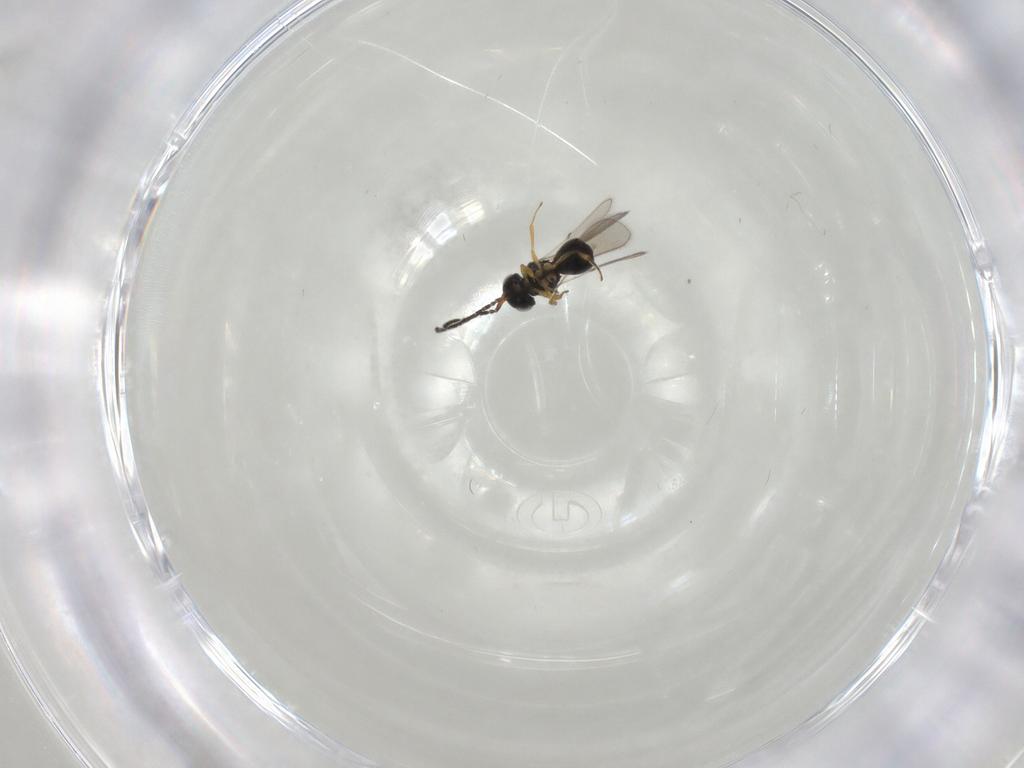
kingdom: Animalia
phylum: Arthropoda
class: Insecta
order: Hymenoptera
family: Scelionidae
